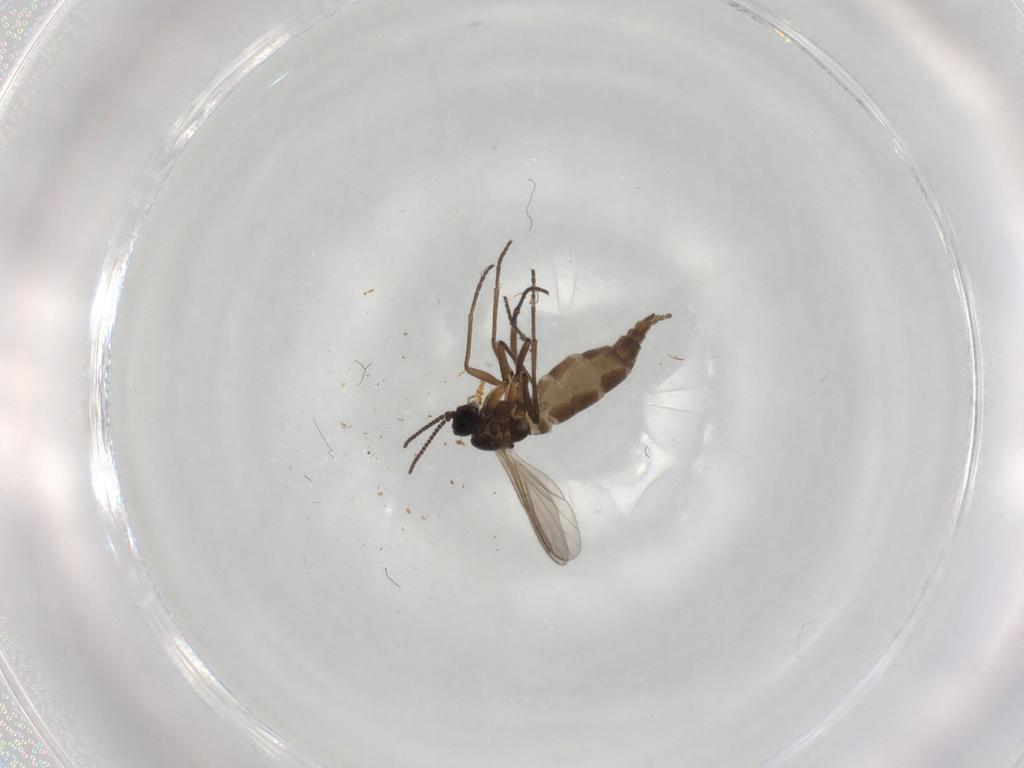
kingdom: Animalia
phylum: Arthropoda
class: Insecta
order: Diptera
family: Sciaridae
